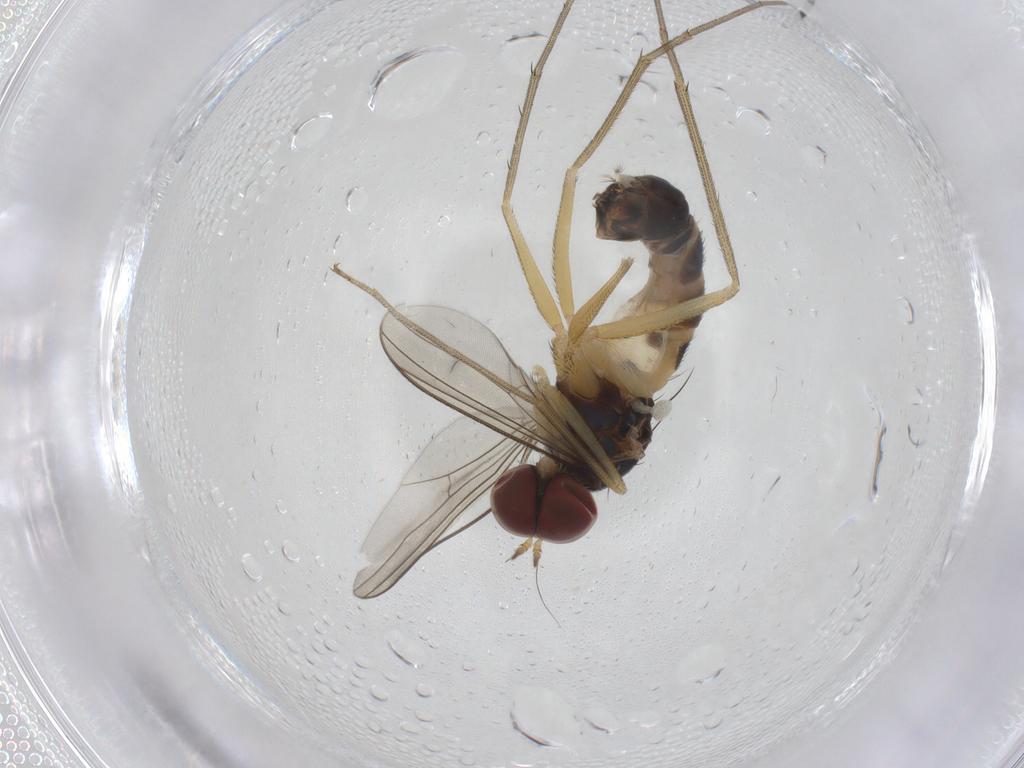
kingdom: Animalia
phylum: Arthropoda
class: Insecta
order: Diptera
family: Dolichopodidae
